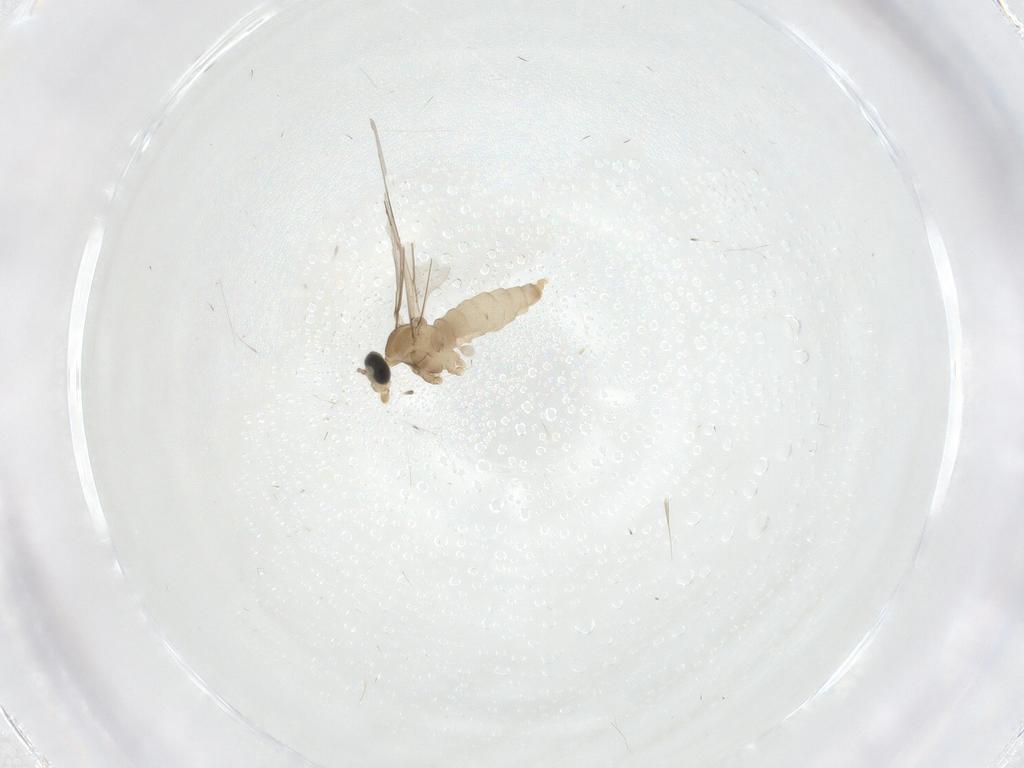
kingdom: Animalia
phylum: Arthropoda
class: Insecta
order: Diptera
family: Cecidomyiidae
